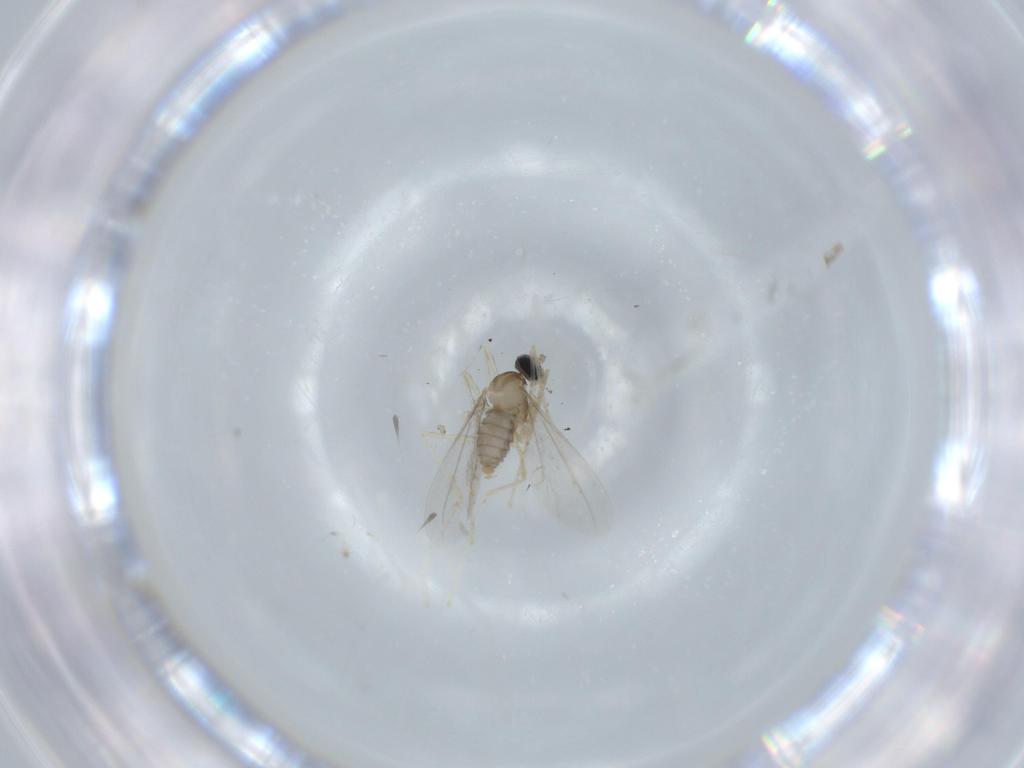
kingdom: Animalia
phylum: Arthropoda
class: Insecta
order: Diptera
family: Cecidomyiidae
